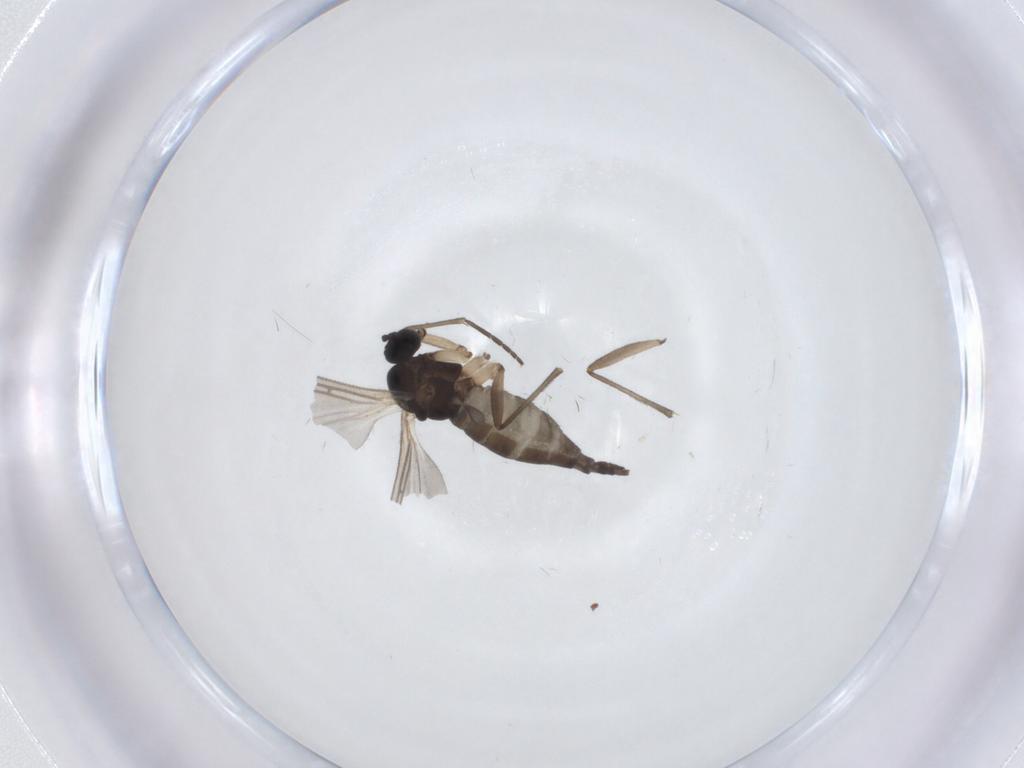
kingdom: Animalia
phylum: Arthropoda
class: Insecta
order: Diptera
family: Sciaridae
